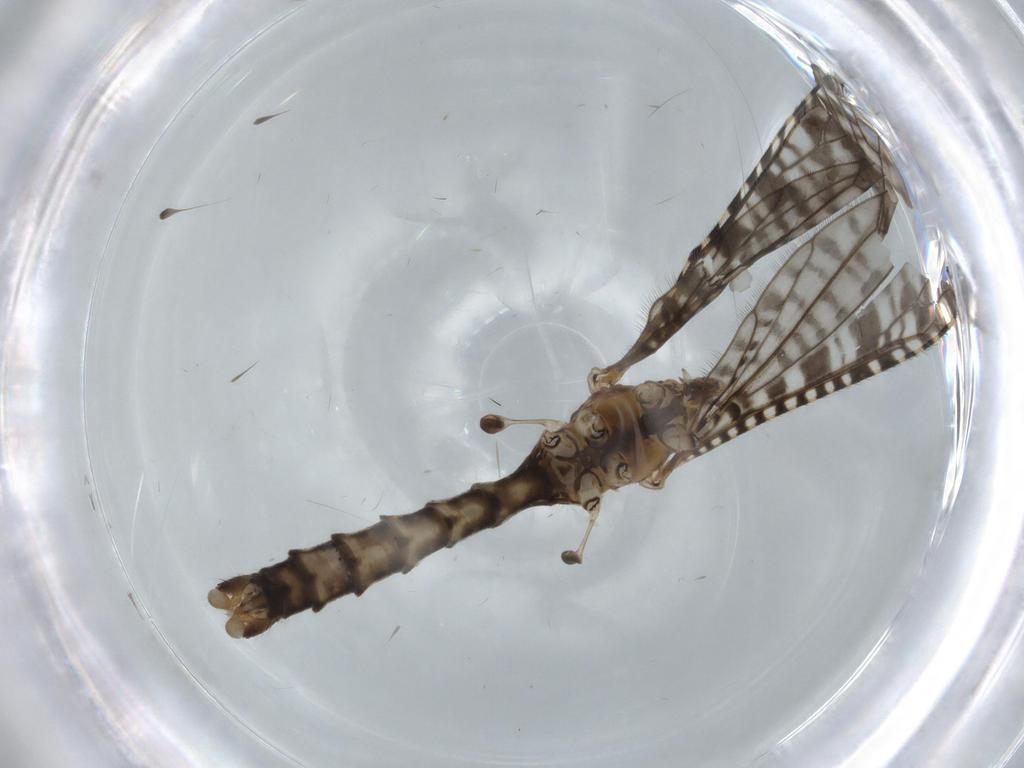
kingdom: Animalia
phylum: Arthropoda
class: Insecta
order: Diptera
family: Limoniidae
